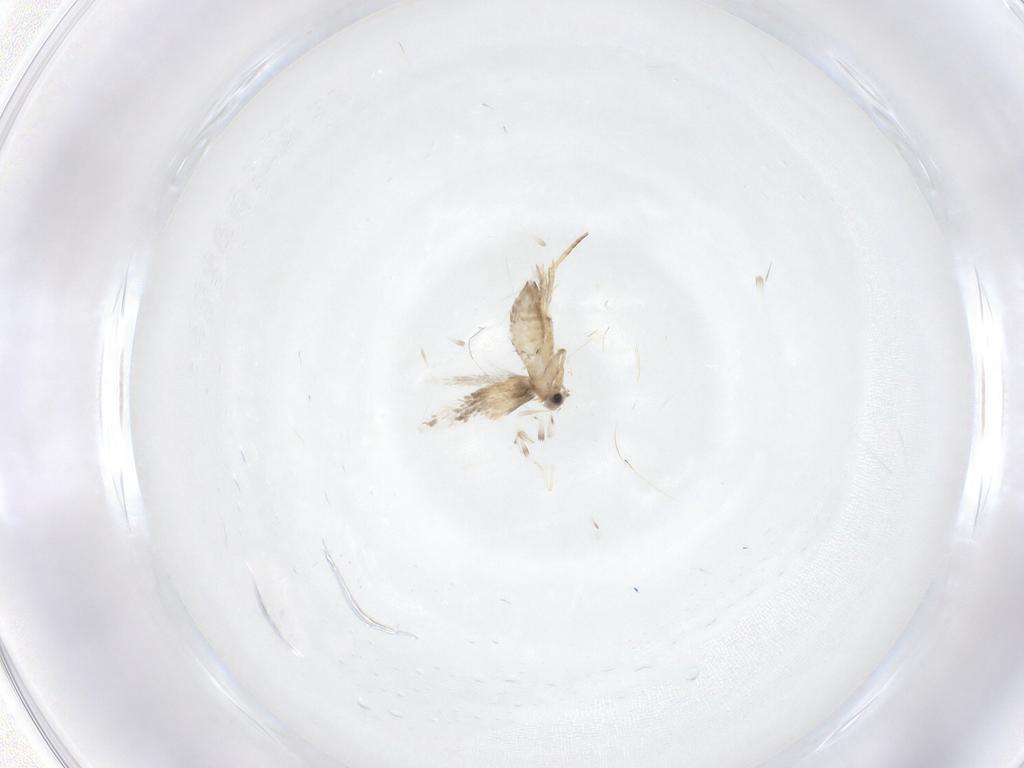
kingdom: Animalia
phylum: Arthropoda
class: Insecta
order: Lepidoptera
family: Nepticulidae
